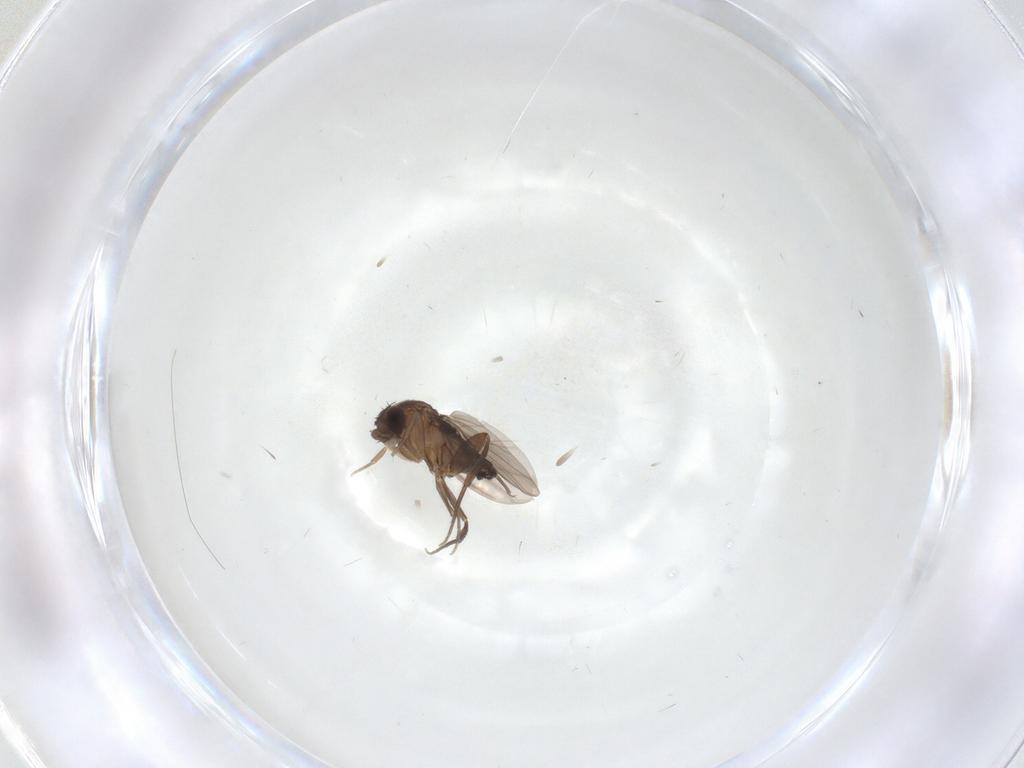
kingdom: Animalia
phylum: Arthropoda
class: Insecta
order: Diptera
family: Phoridae
